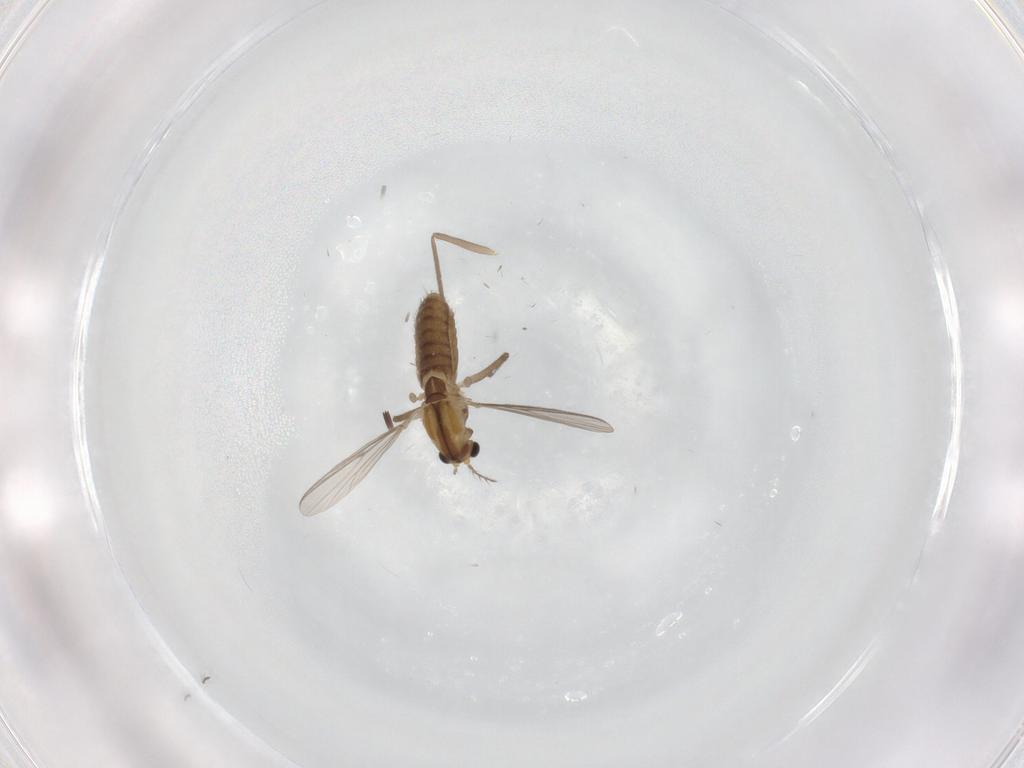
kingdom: Animalia
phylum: Arthropoda
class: Insecta
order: Diptera
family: Chironomidae
